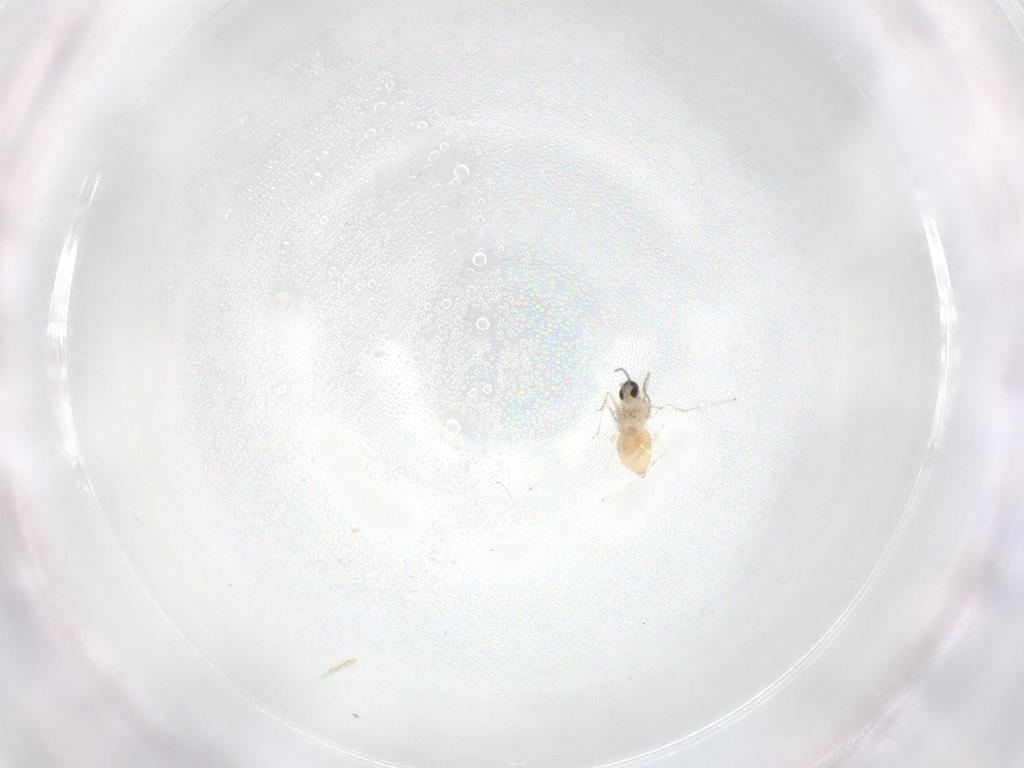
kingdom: Animalia
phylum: Arthropoda
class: Insecta
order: Diptera
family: Cecidomyiidae
